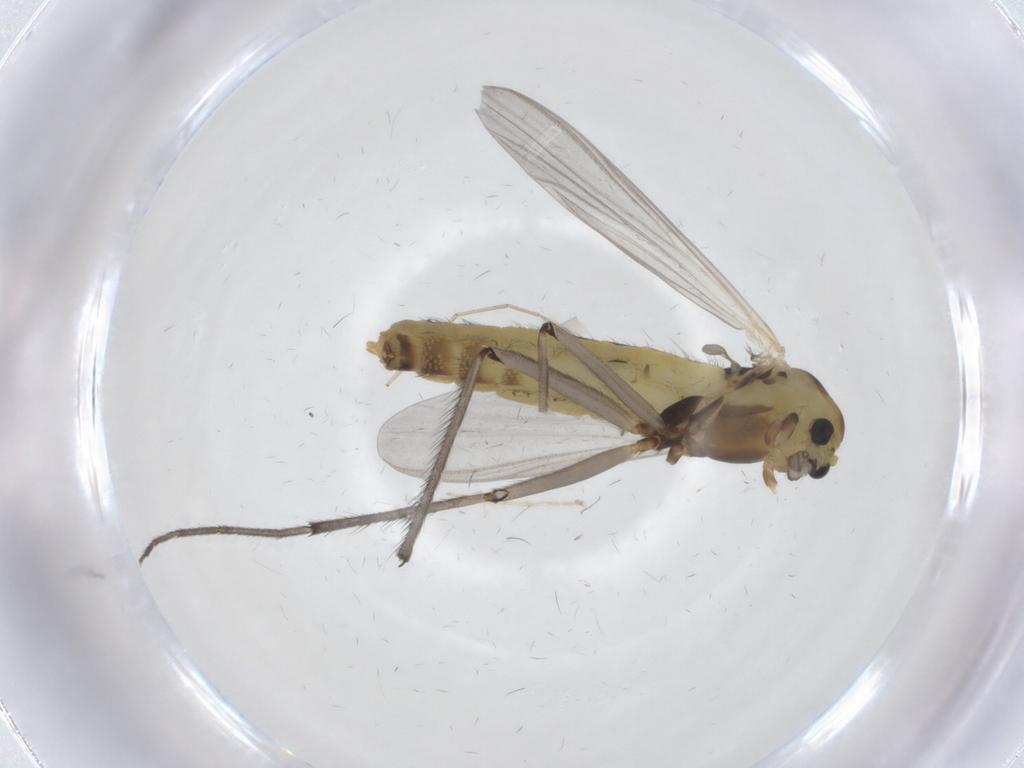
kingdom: Animalia
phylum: Arthropoda
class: Insecta
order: Diptera
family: Chironomidae
